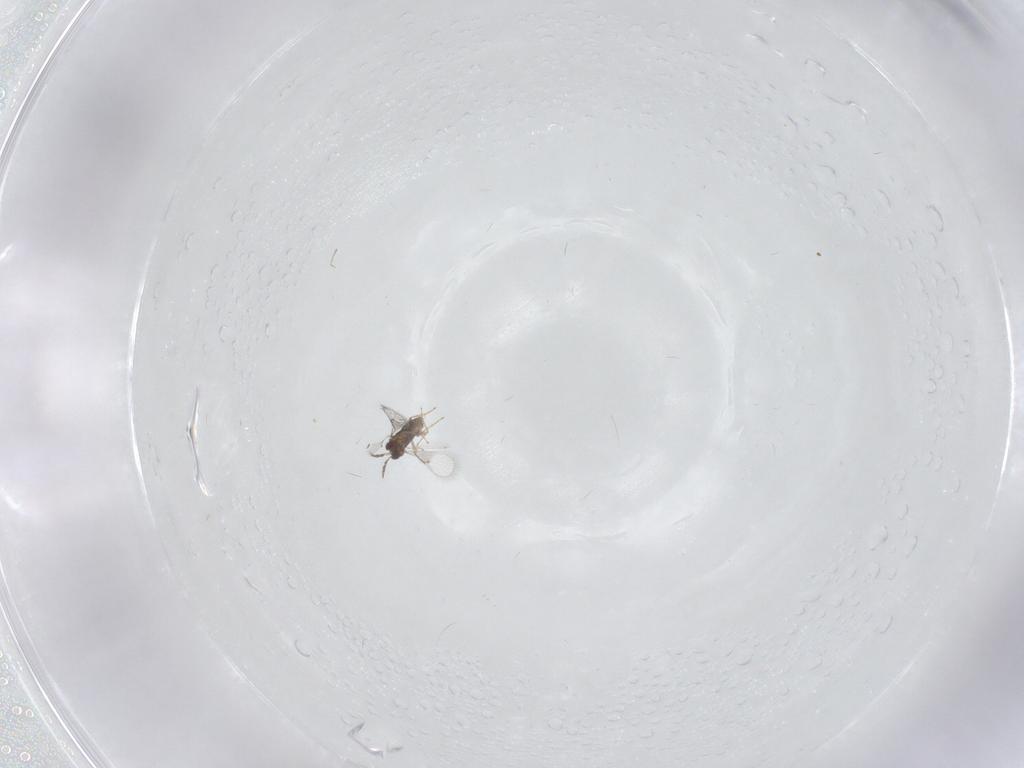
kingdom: Animalia
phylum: Arthropoda
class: Insecta
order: Hymenoptera
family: Trichogrammatidae
